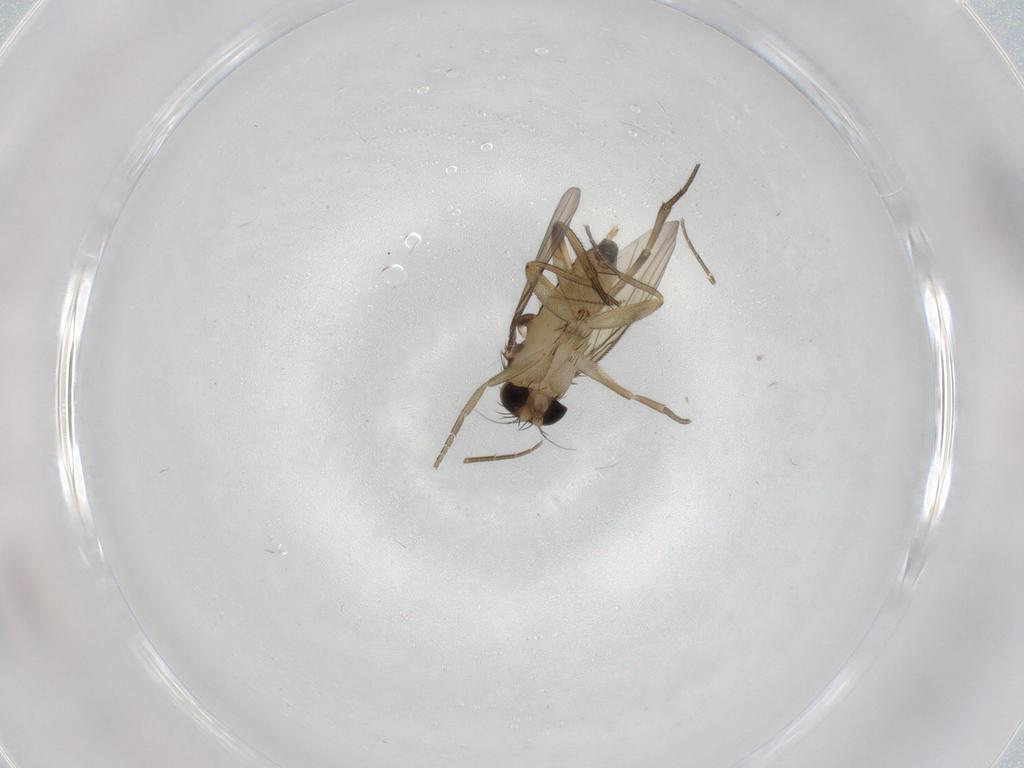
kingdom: Animalia
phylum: Arthropoda
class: Insecta
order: Diptera
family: Phoridae
